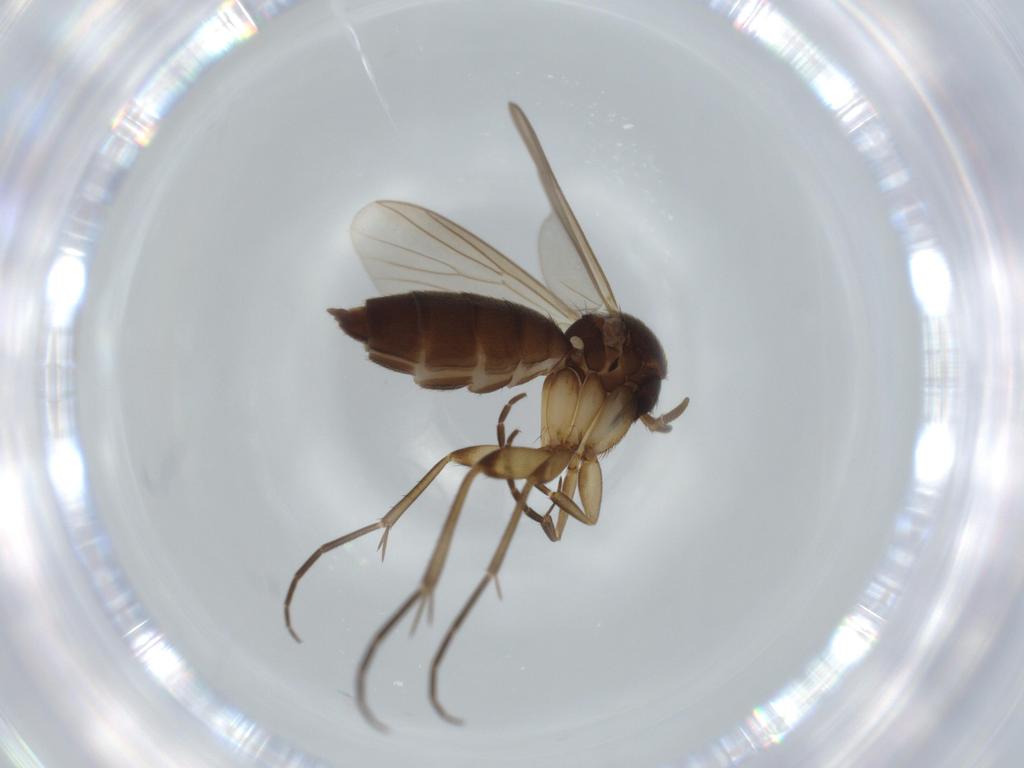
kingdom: Animalia
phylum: Arthropoda
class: Insecta
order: Diptera
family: Mycetophilidae
